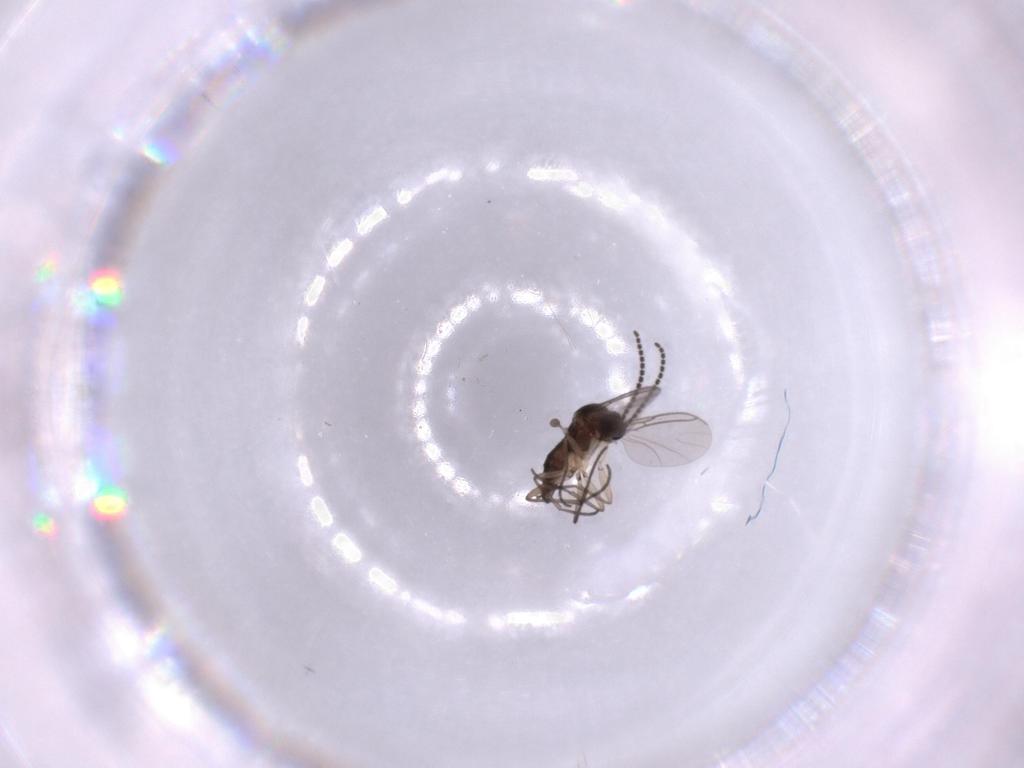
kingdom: Animalia
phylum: Arthropoda
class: Insecta
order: Diptera
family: Sciaridae
